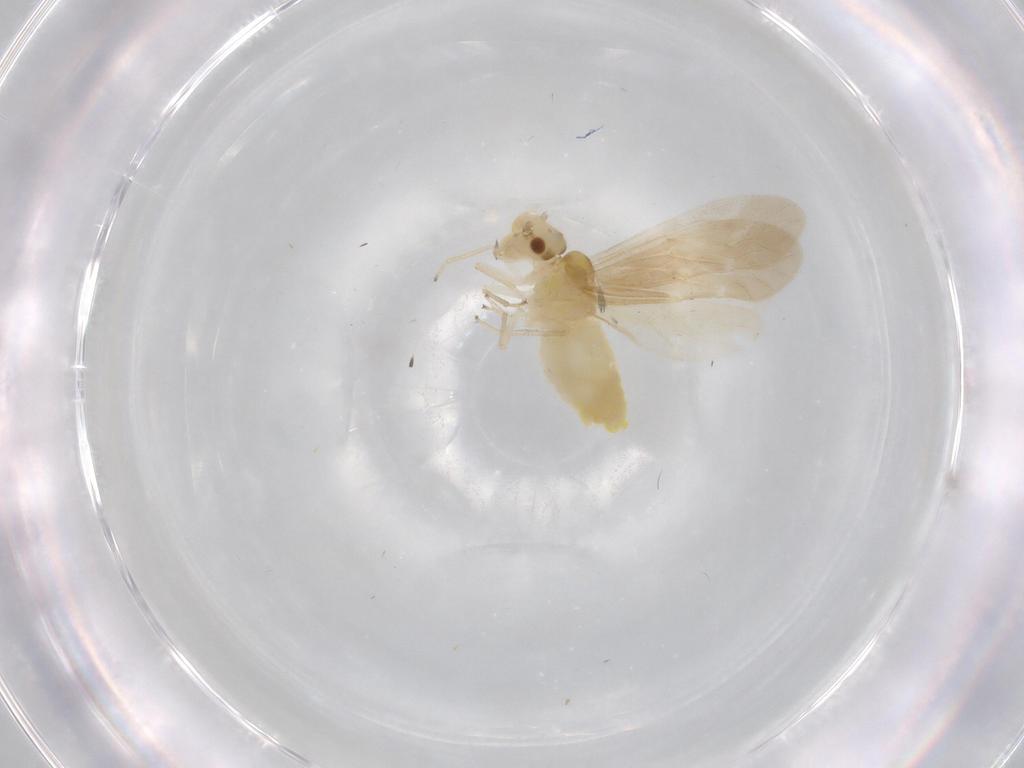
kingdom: Animalia
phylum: Arthropoda
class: Insecta
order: Psocodea
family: Caeciliusidae
